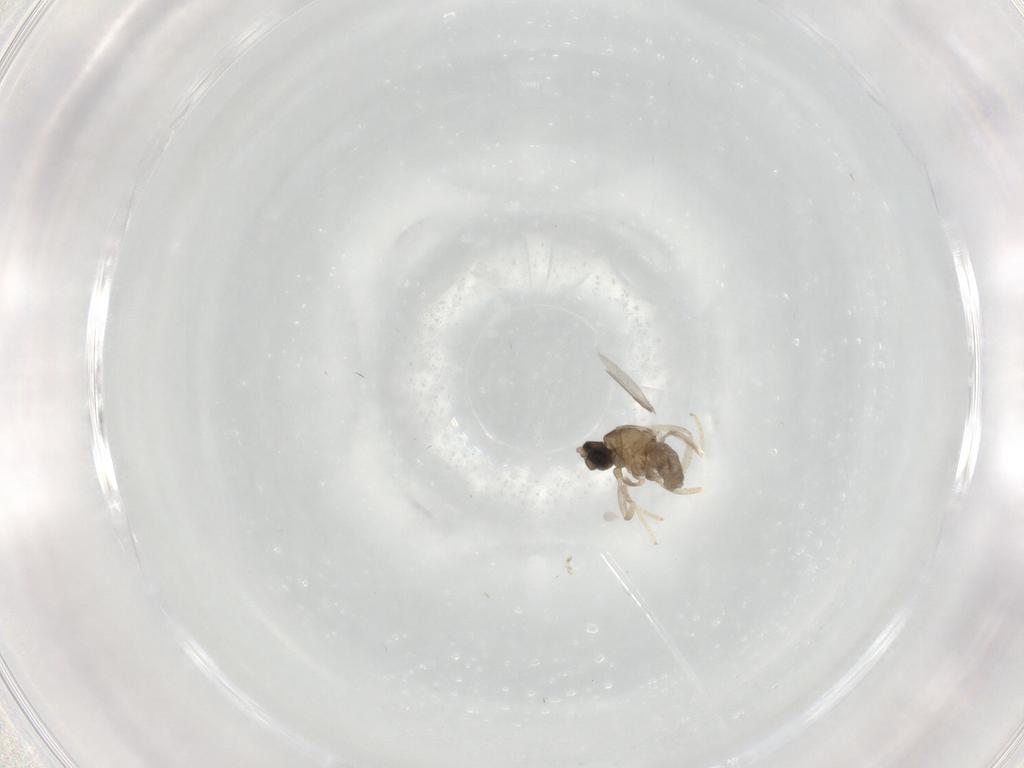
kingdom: Animalia
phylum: Arthropoda
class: Insecta
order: Diptera
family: Cecidomyiidae
